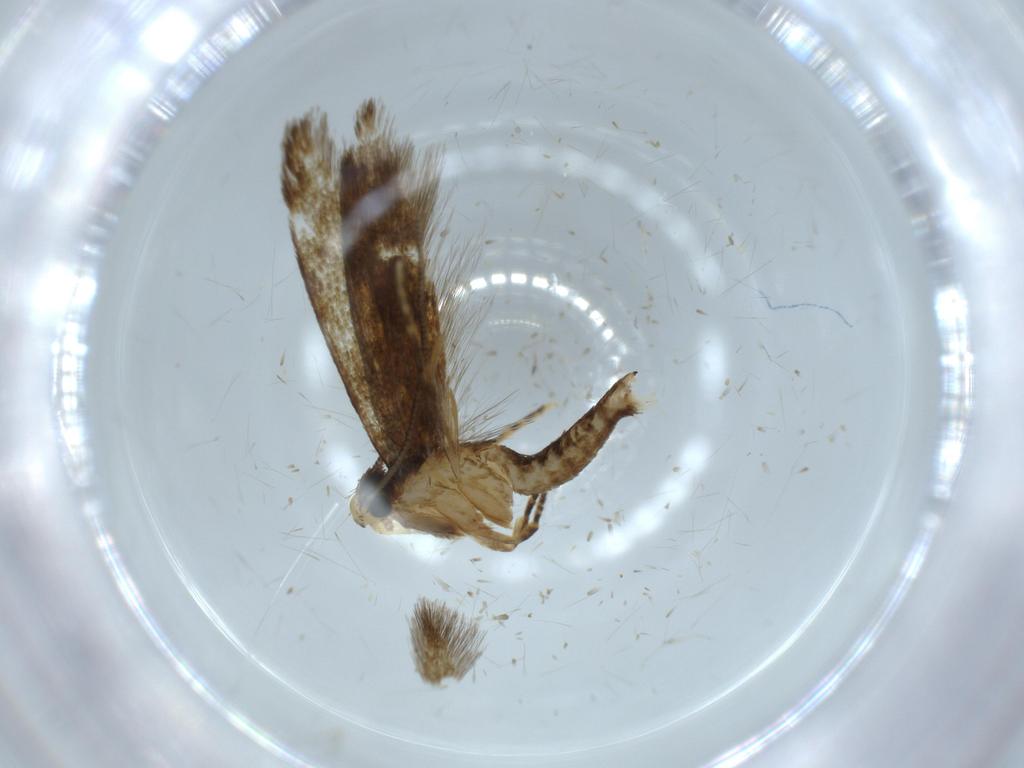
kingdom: Animalia
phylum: Arthropoda
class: Insecta
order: Lepidoptera
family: Tineidae
